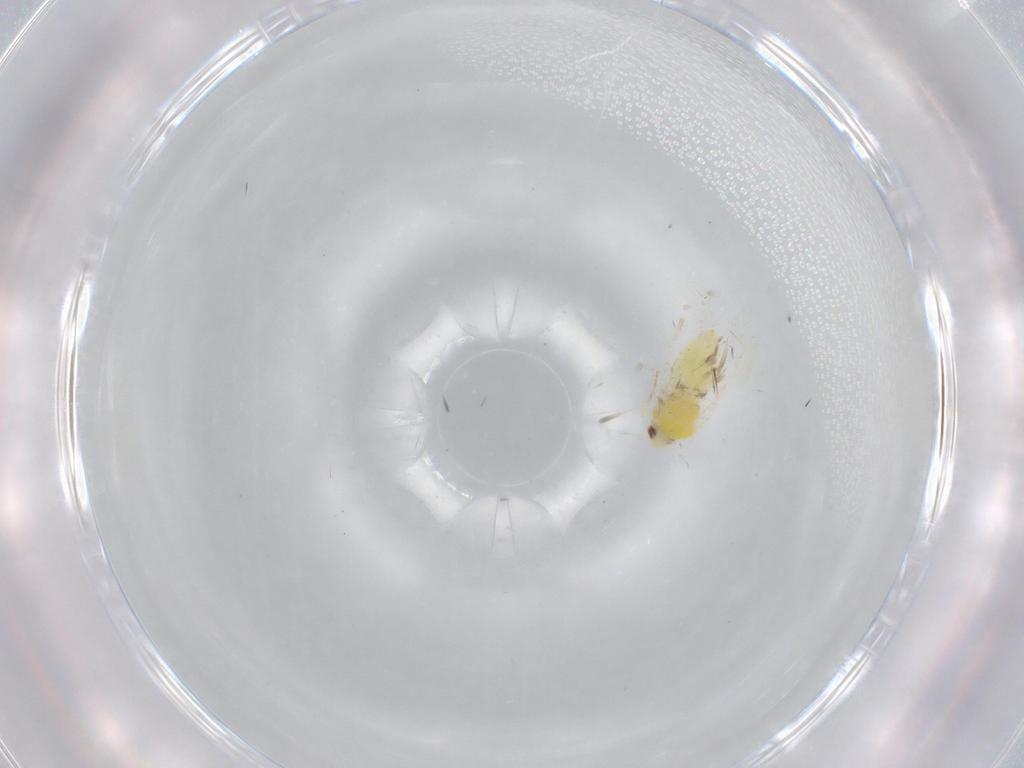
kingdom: Animalia
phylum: Arthropoda
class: Insecta
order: Hemiptera
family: Aleyrodidae
